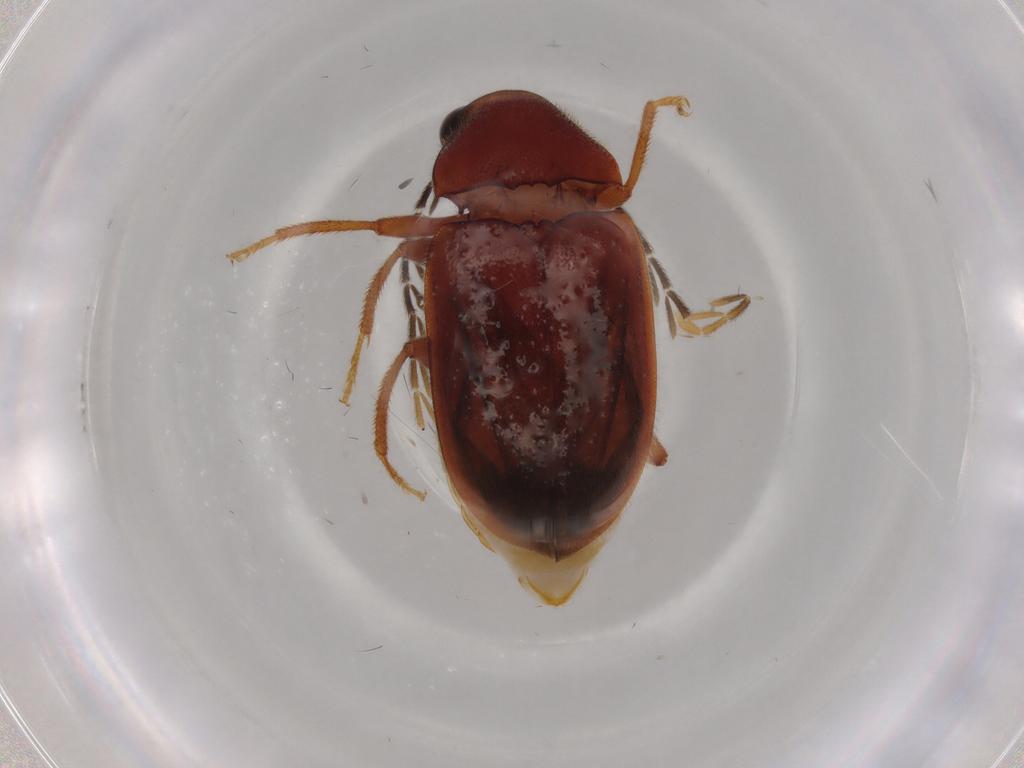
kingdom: Animalia
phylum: Arthropoda
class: Insecta
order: Coleoptera
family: Ptilodactylidae
